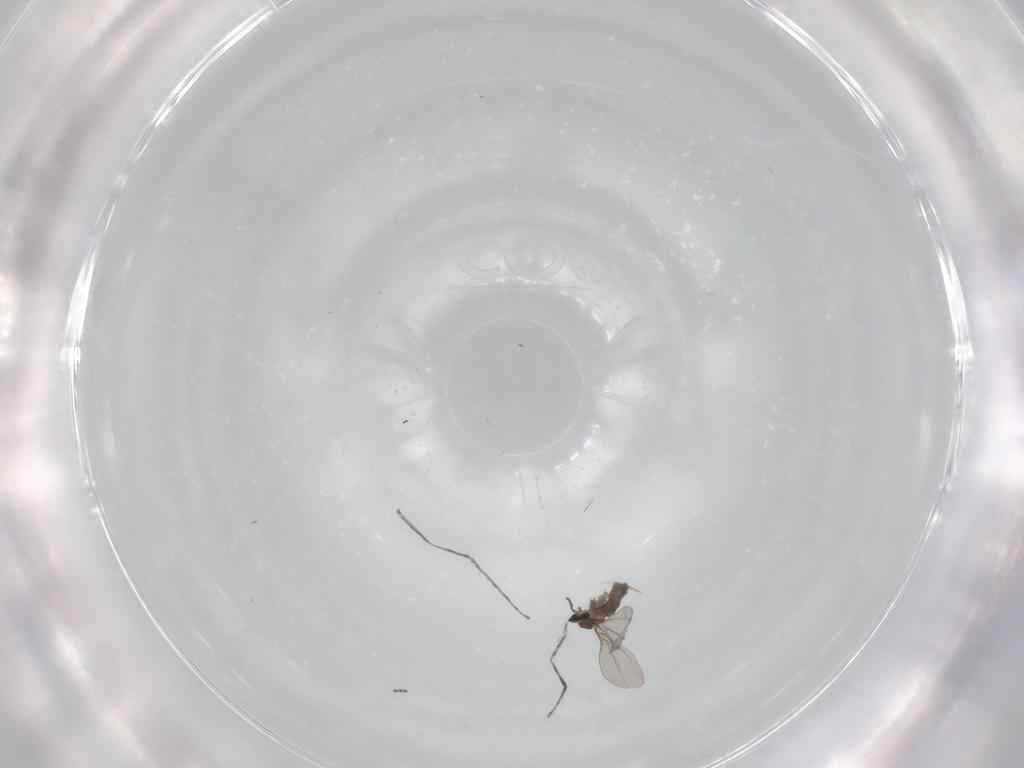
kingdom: Animalia
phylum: Arthropoda
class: Insecta
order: Diptera
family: Cecidomyiidae
